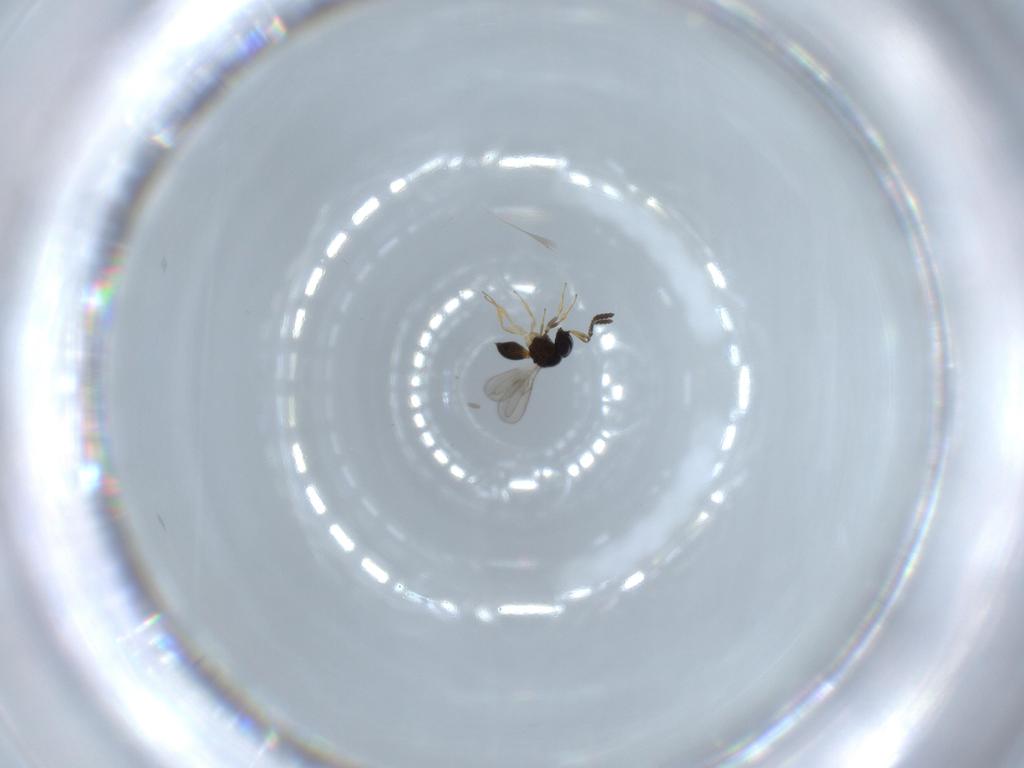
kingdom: Animalia
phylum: Arthropoda
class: Insecta
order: Hymenoptera
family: Scelionidae
